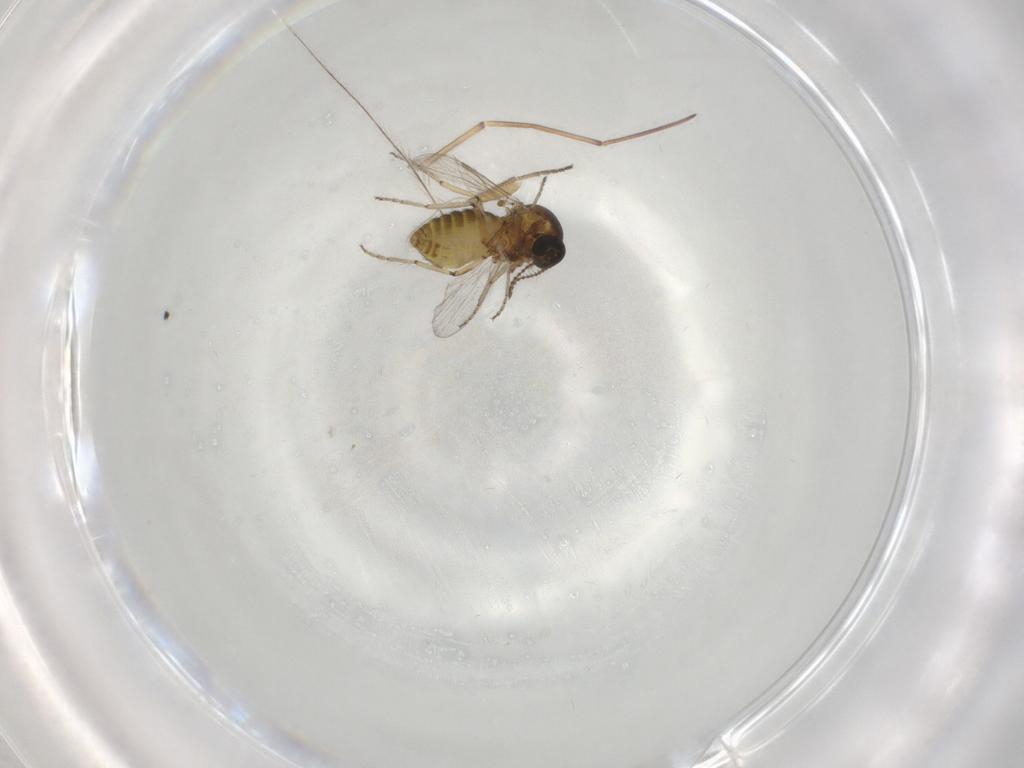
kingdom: Animalia
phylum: Arthropoda
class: Insecta
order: Diptera
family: Ceratopogonidae
